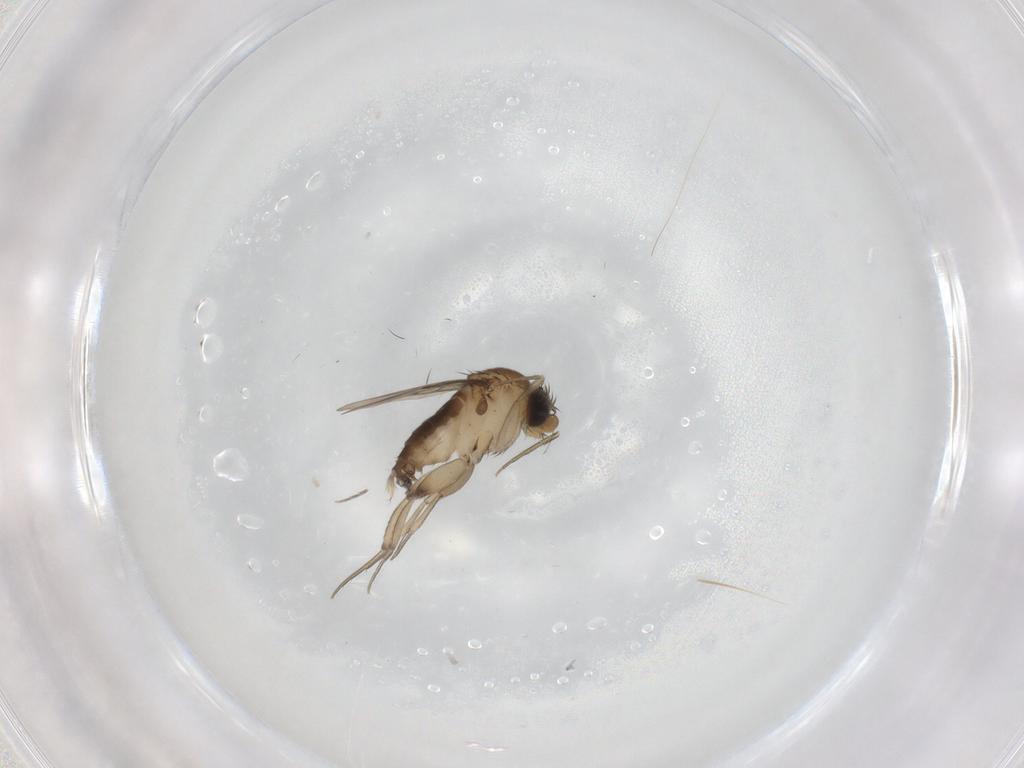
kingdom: Animalia
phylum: Arthropoda
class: Insecta
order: Diptera
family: Phoridae
